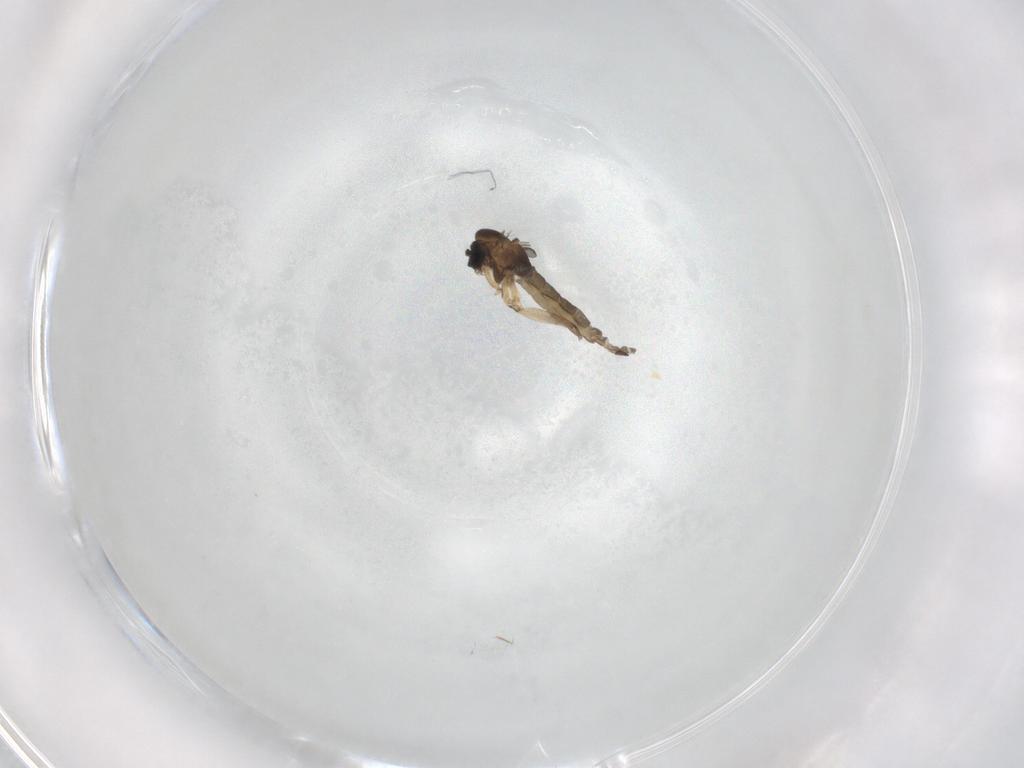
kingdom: Animalia
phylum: Arthropoda
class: Insecta
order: Diptera
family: Sciaridae
